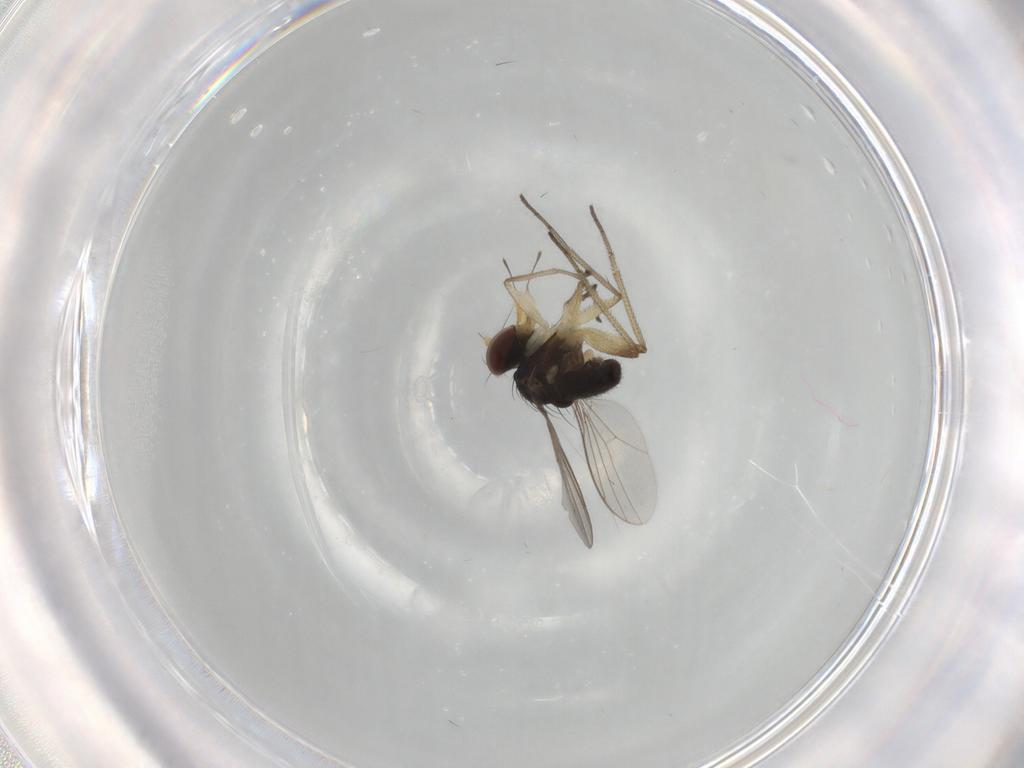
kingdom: Animalia
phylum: Arthropoda
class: Insecta
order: Diptera
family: Dolichopodidae
